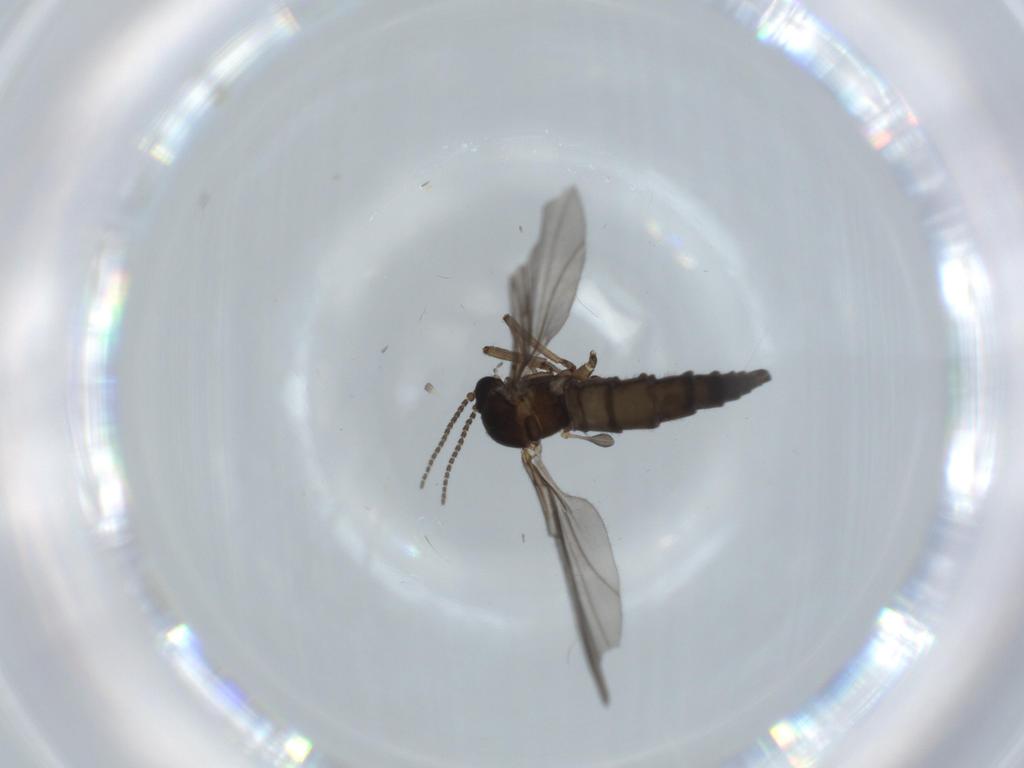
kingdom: Animalia
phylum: Arthropoda
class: Insecta
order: Diptera
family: Sciaridae
